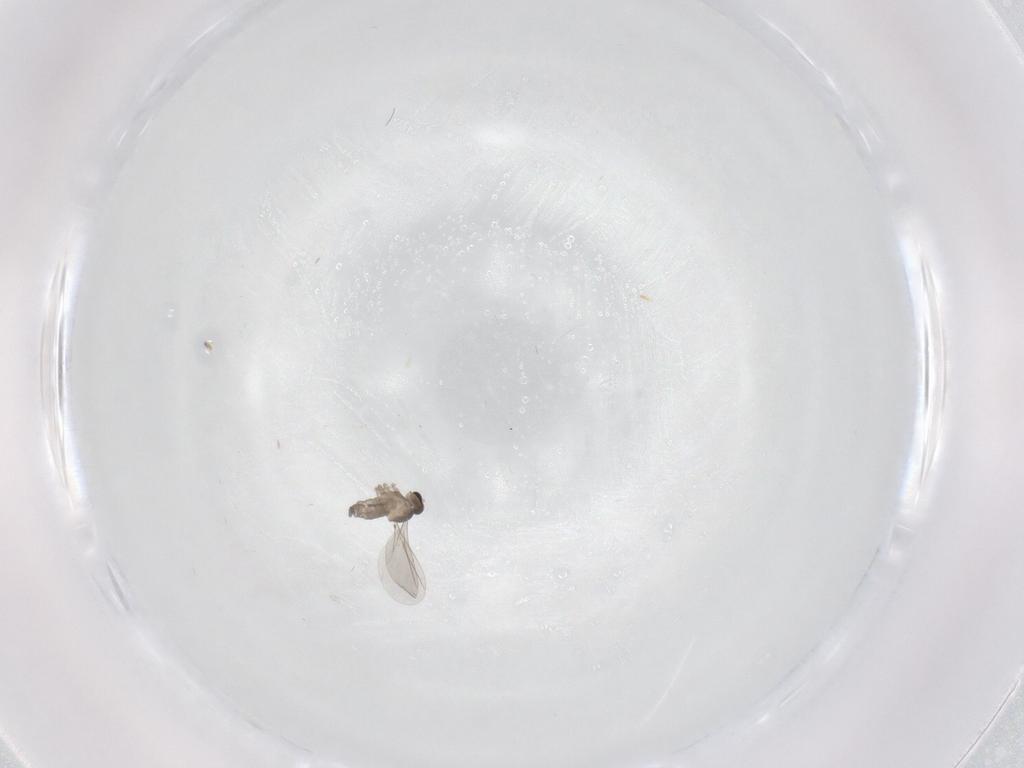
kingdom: Animalia
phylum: Arthropoda
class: Insecta
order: Diptera
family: Cecidomyiidae
